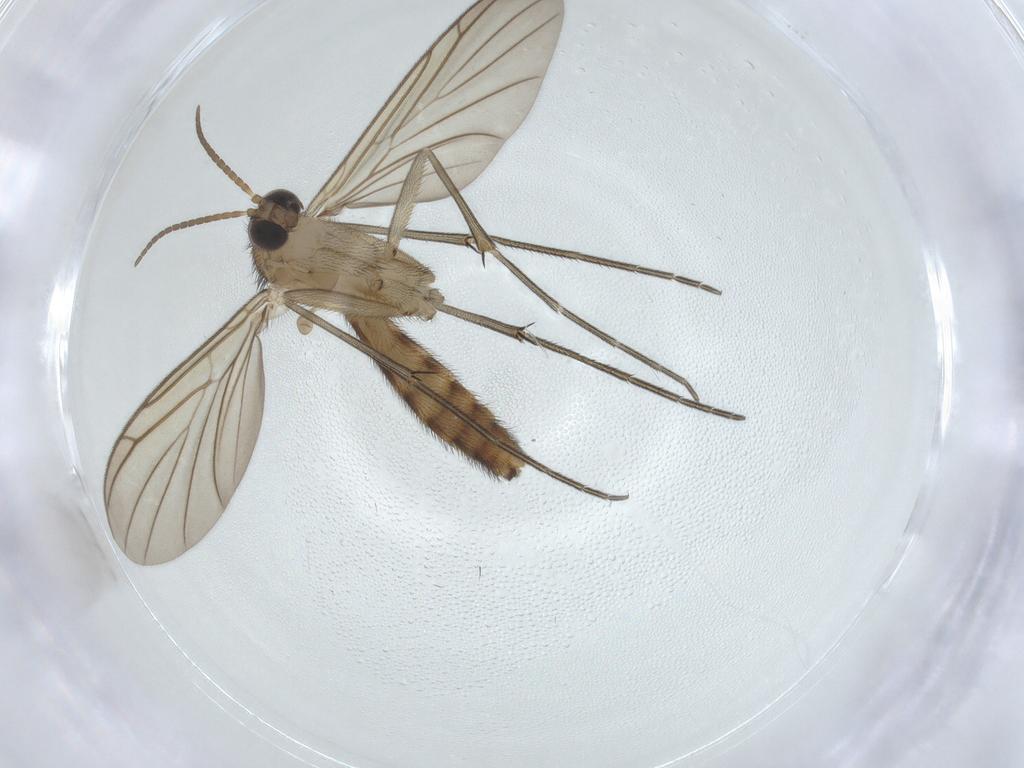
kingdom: Animalia
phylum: Arthropoda
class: Insecta
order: Diptera
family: Keroplatidae
